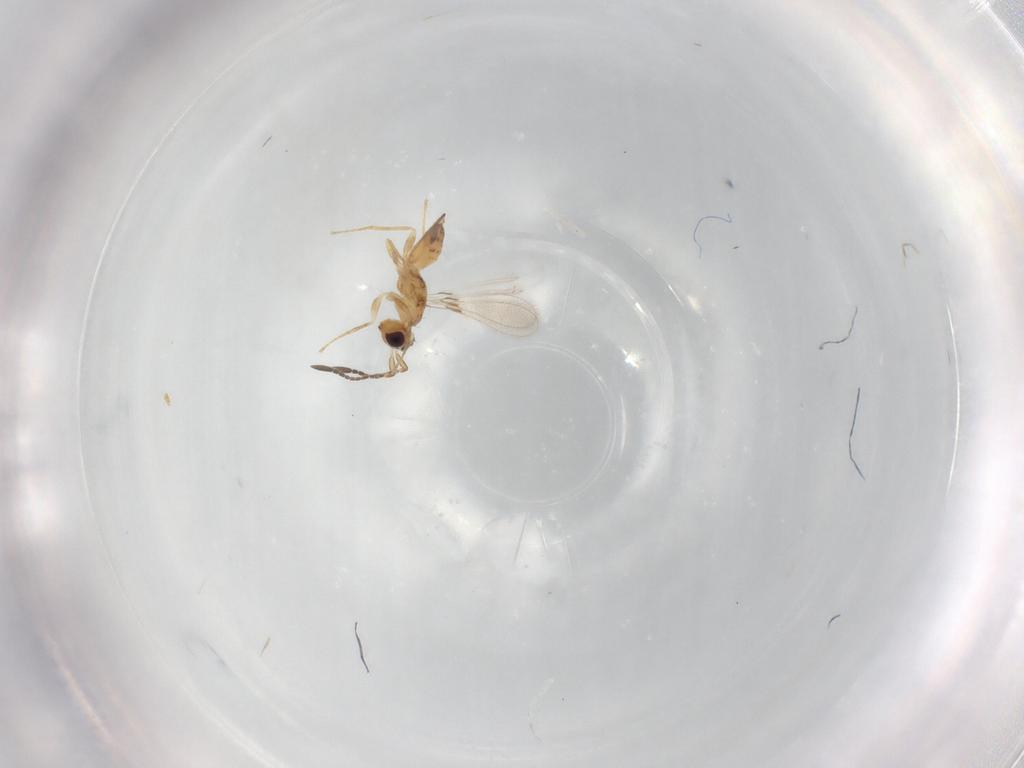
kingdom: Animalia
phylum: Arthropoda
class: Insecta
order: Hymenoptera
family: Mymaridae
